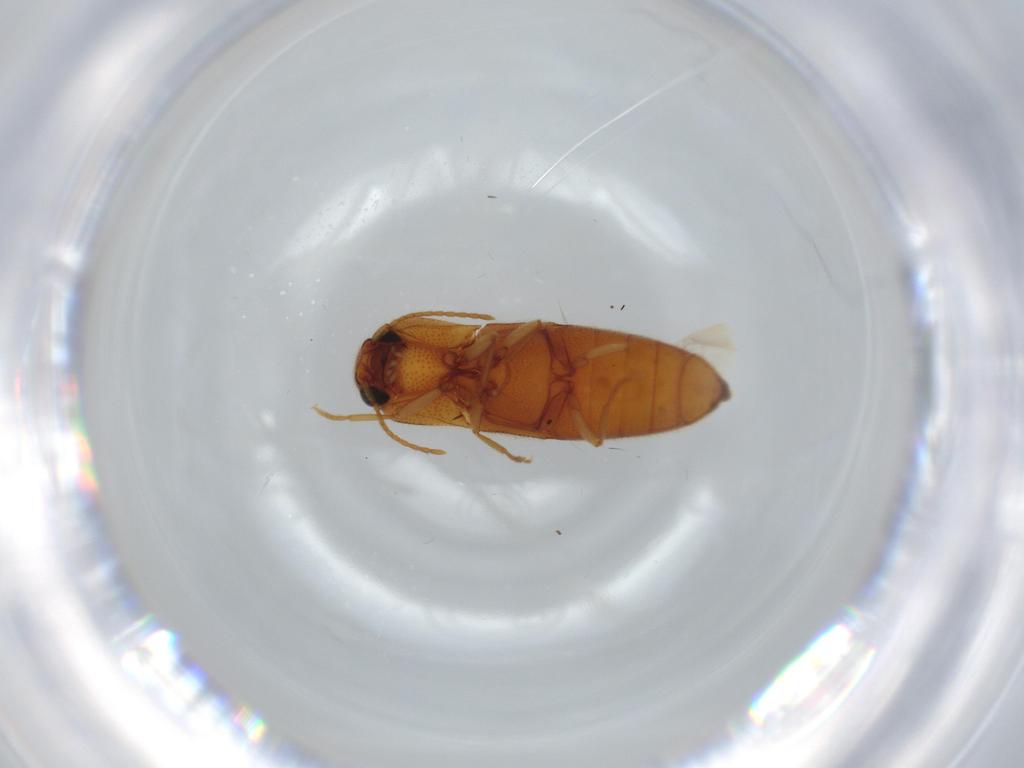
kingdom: Animalia
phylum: Arthropoda
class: Insecta
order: Coleoptera
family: Elateridae
